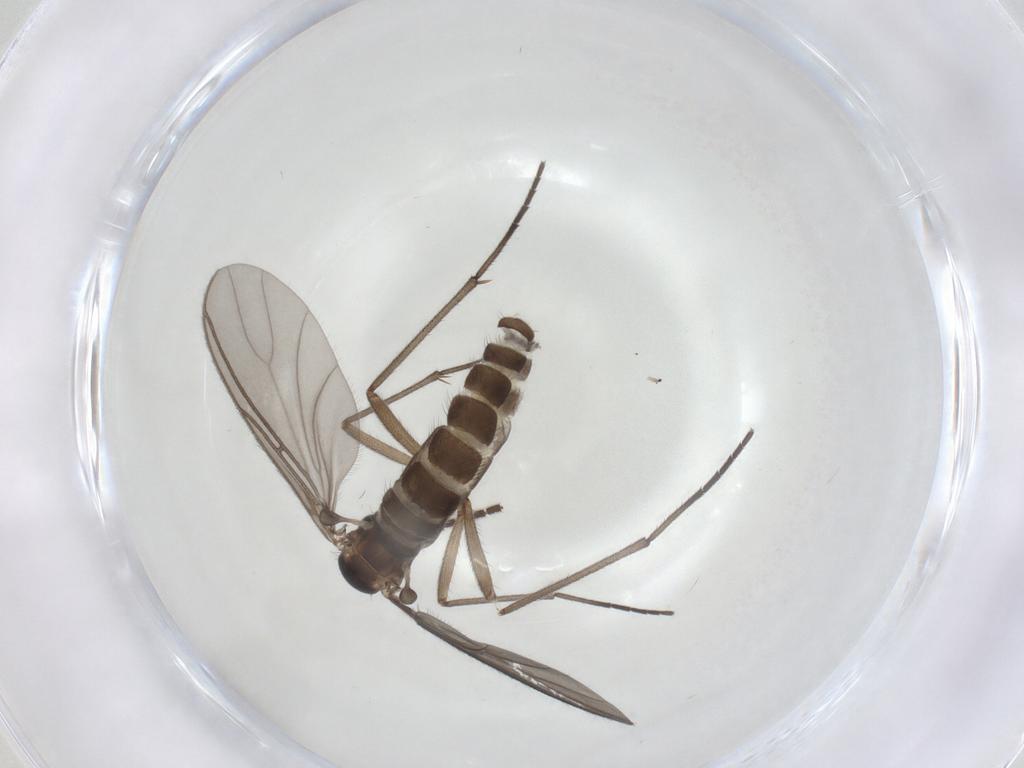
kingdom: Animalia
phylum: Arthropoda
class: Insecta
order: Diptera
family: Sciaridae
